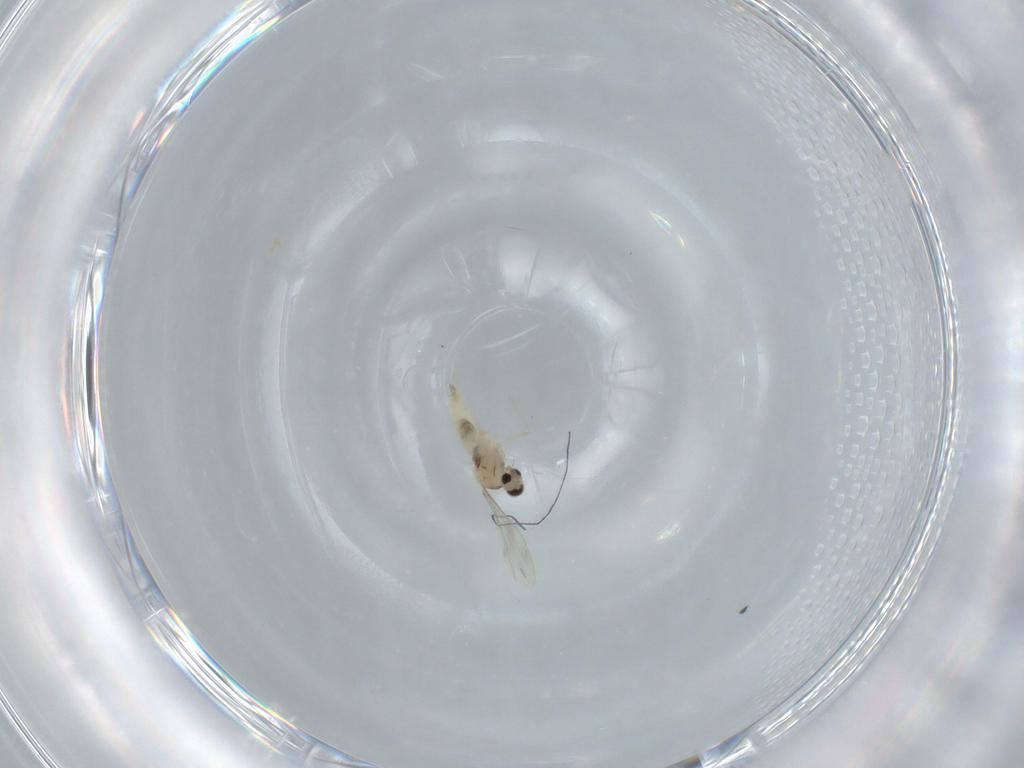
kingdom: Animalia
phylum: Arthropoda
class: Insecta
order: Diptera
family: Cecidomyiidae
